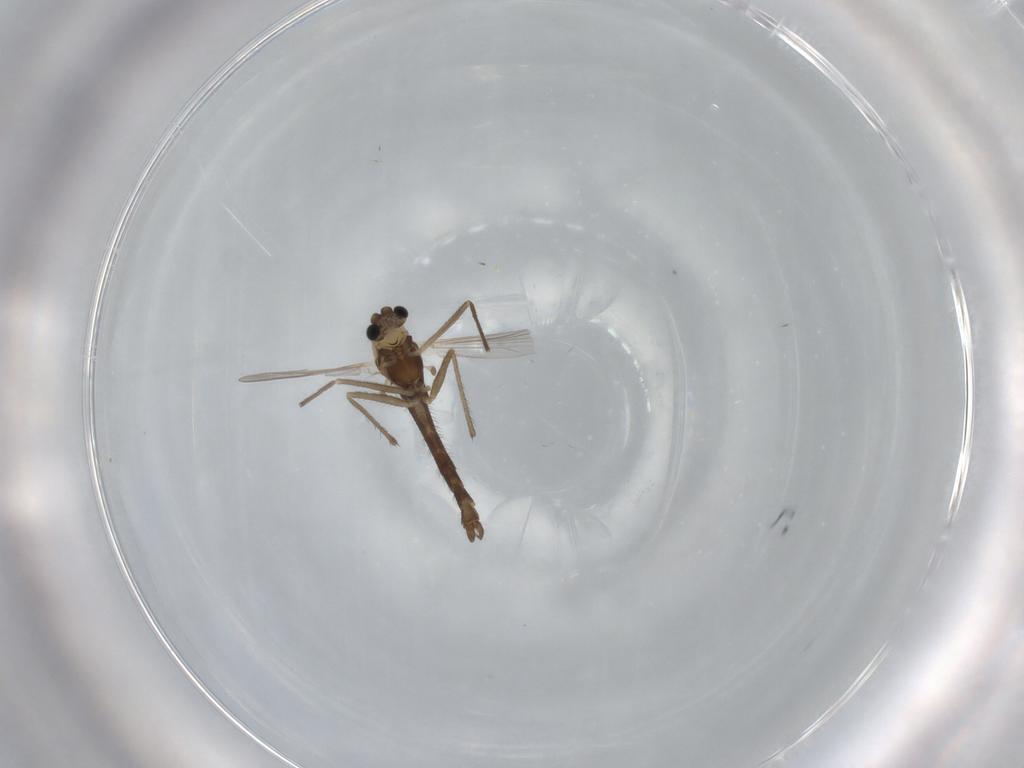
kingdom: Animalia
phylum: Arthropoda
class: Insecta
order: Diptera
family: Chironomidae
